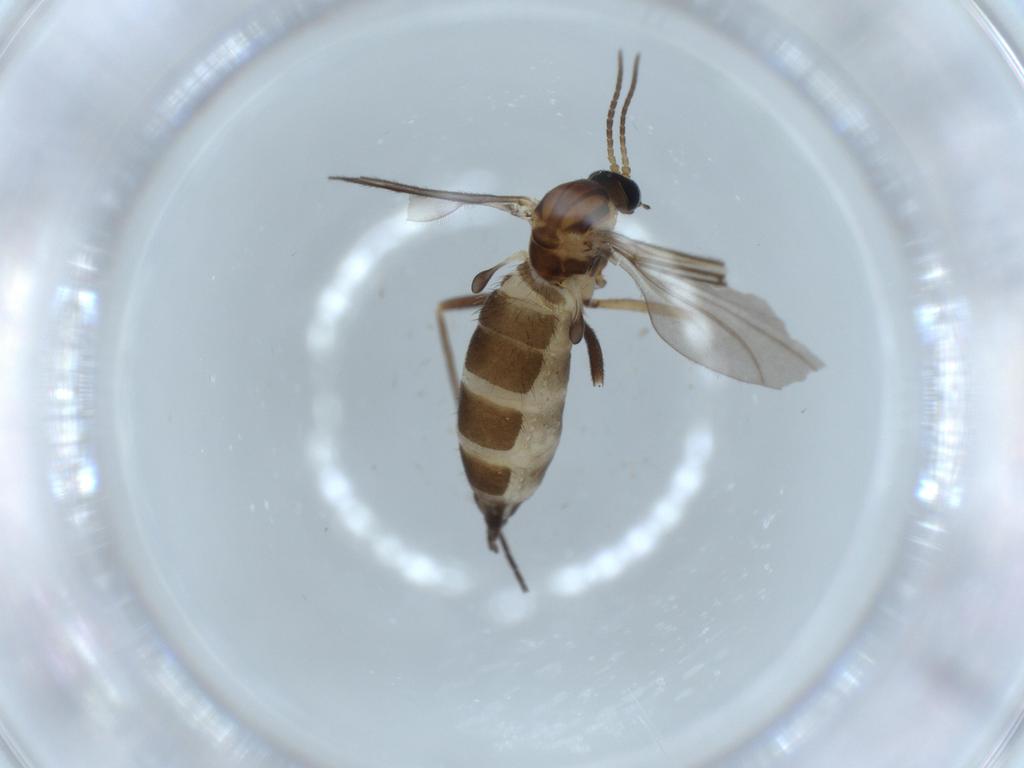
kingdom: Animalia
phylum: Arthropoda
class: Insecta
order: Diptera
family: Sciaridae
